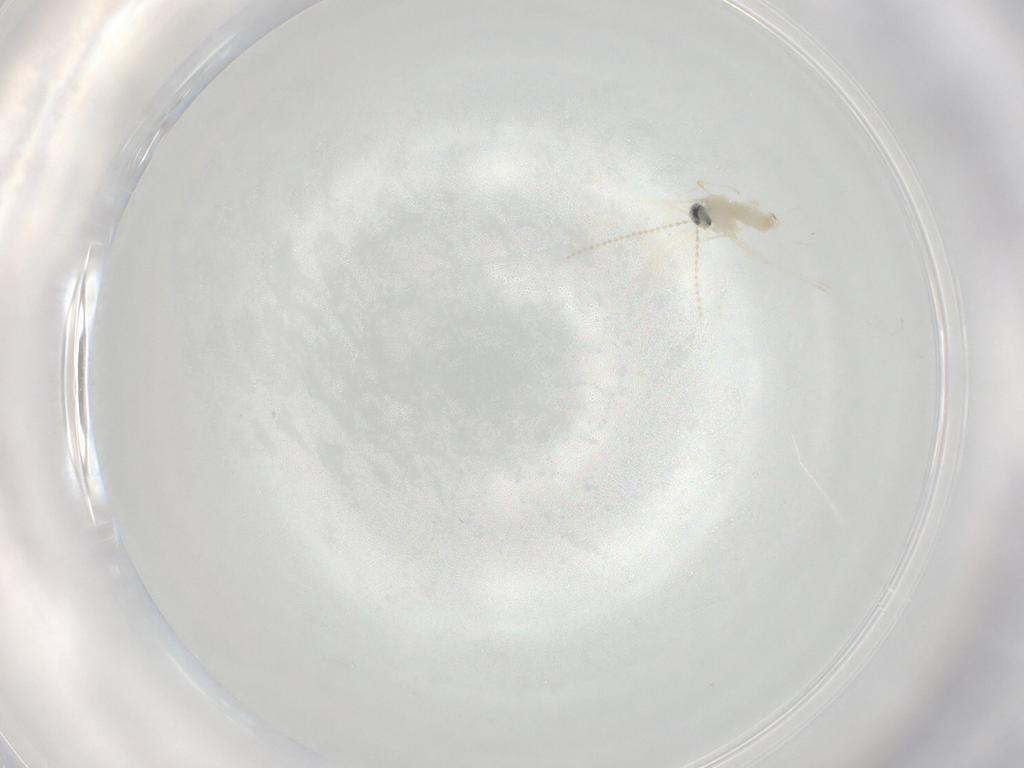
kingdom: Animalia
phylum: Arthropoda
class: Insecta
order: Diptera
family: Cecidomyiidae
